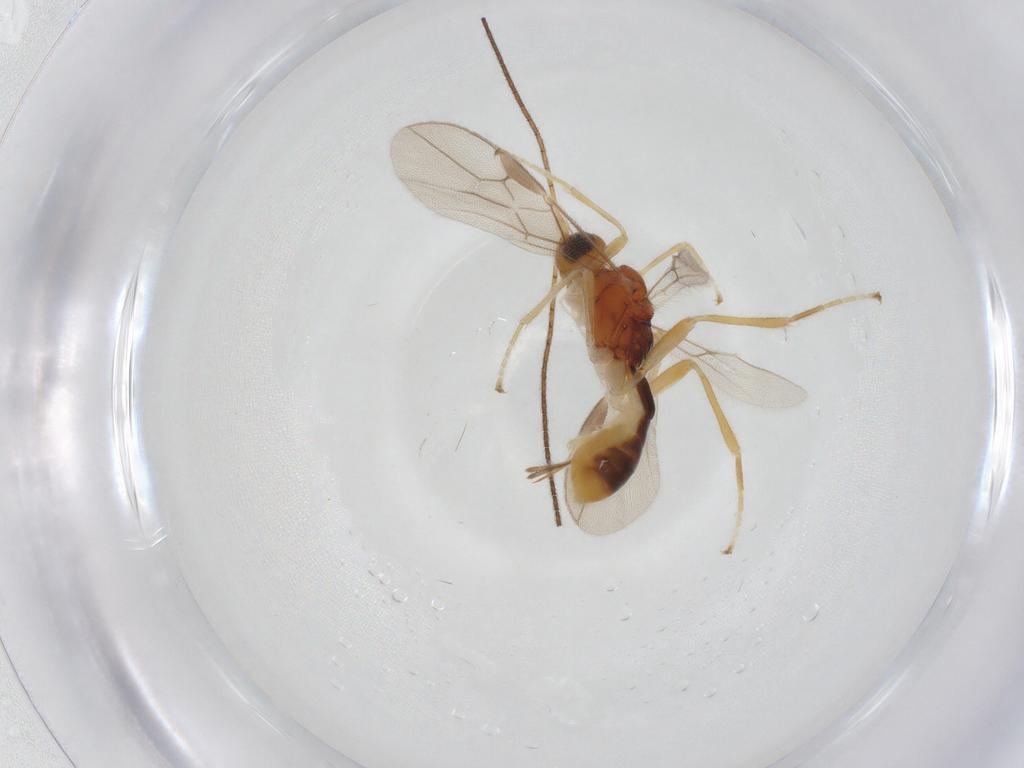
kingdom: Animalia
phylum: Arthropoda
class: Insecta
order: Hymenoptera
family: Braconidae
